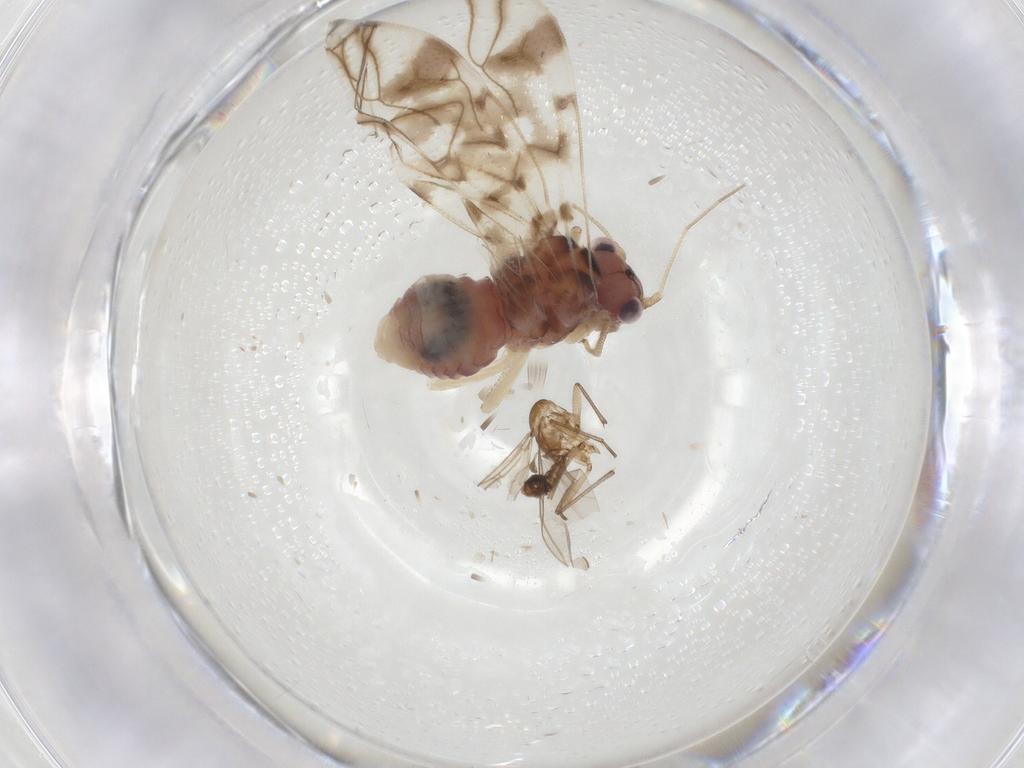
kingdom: Animalia
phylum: Arthropoda
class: Insecta
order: Psocodea
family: Amphipsocidae
